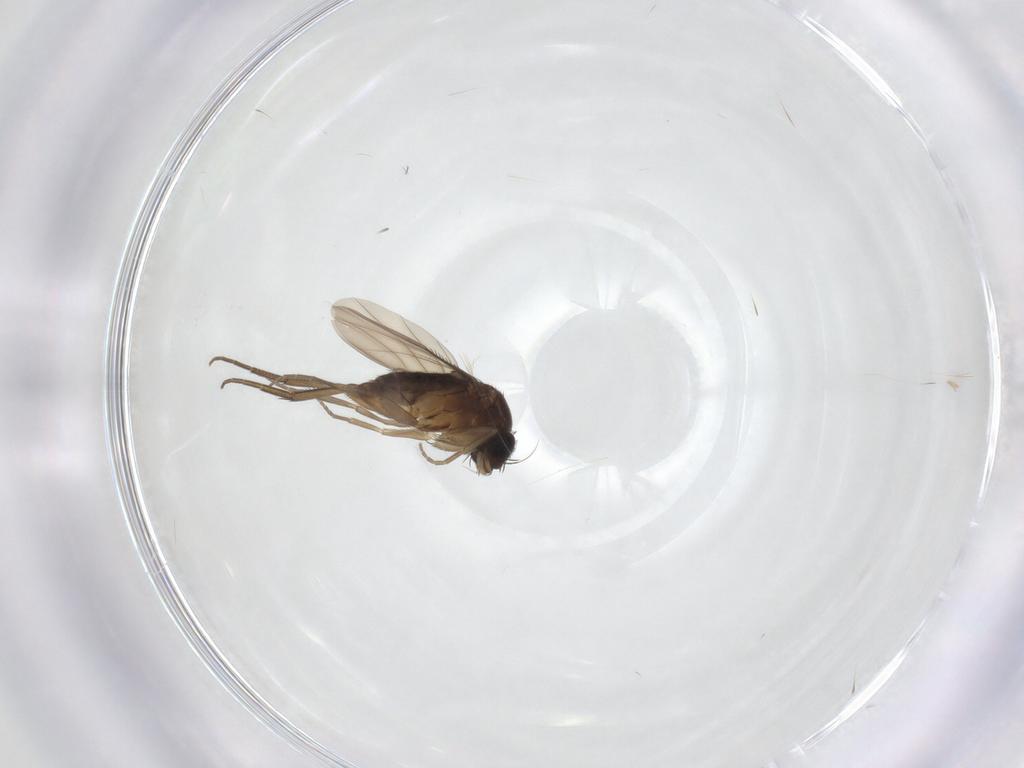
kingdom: Animalia
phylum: Arthropoda
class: Insecta
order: Diptera
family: Phoridae
